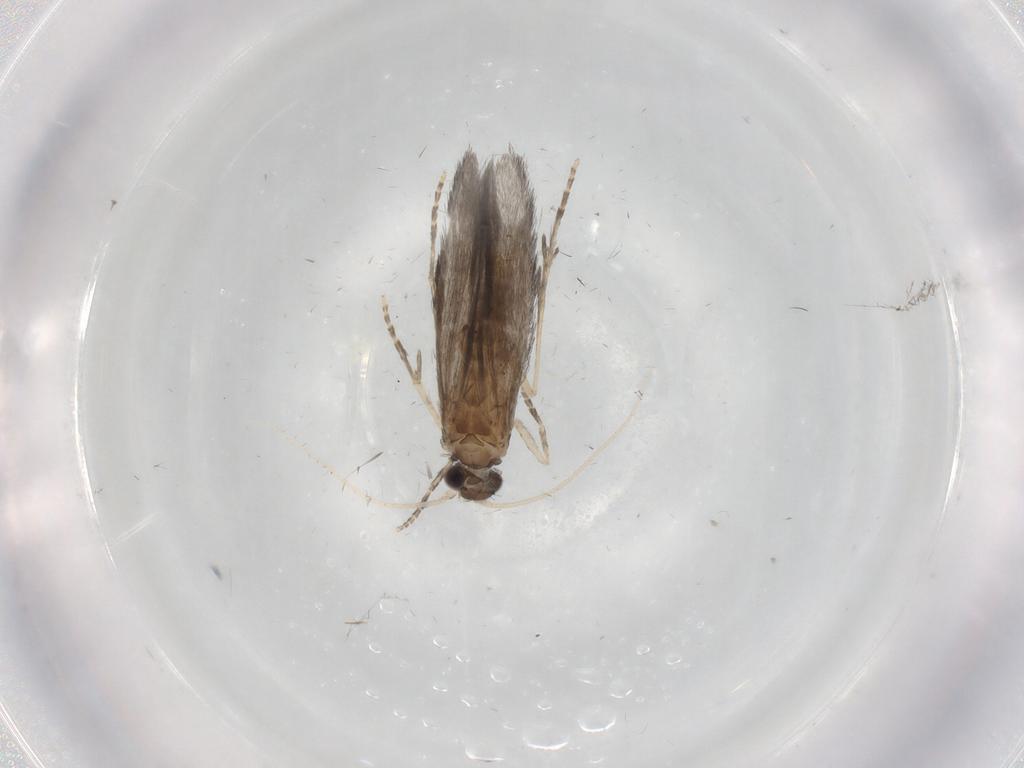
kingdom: Animalia
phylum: Arthropoda
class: Insecta
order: Trichoptera
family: Hydroptilidae
